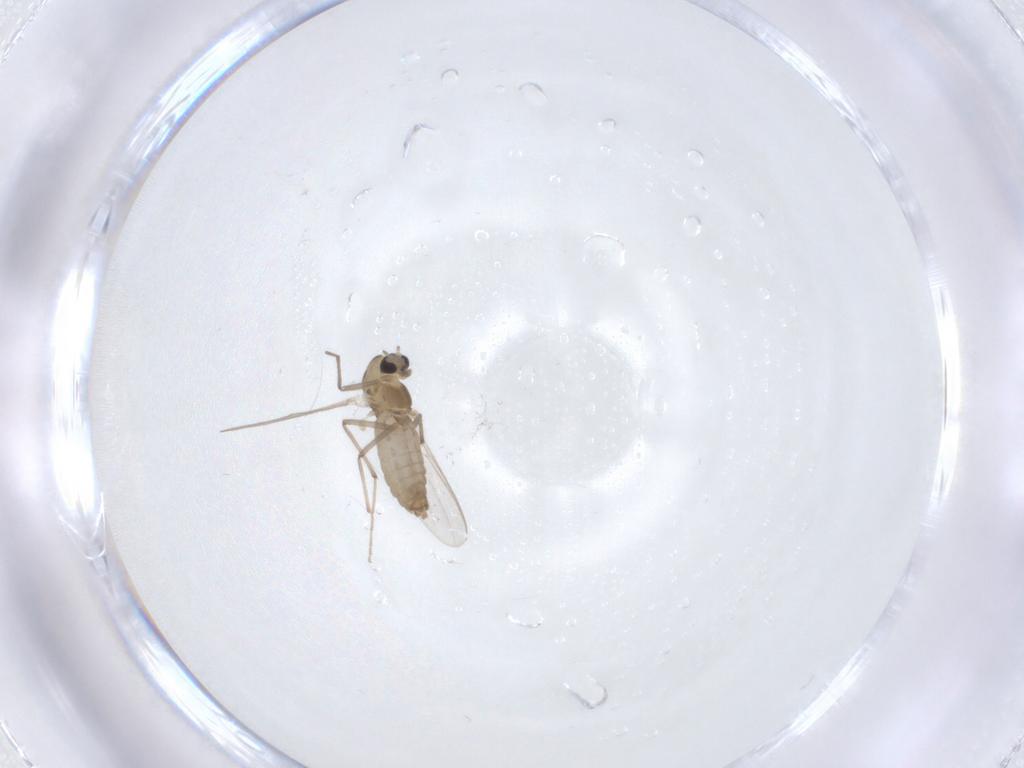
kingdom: Animalia
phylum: Arthropoda
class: Insecta
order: Diptera
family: Chironomidae
